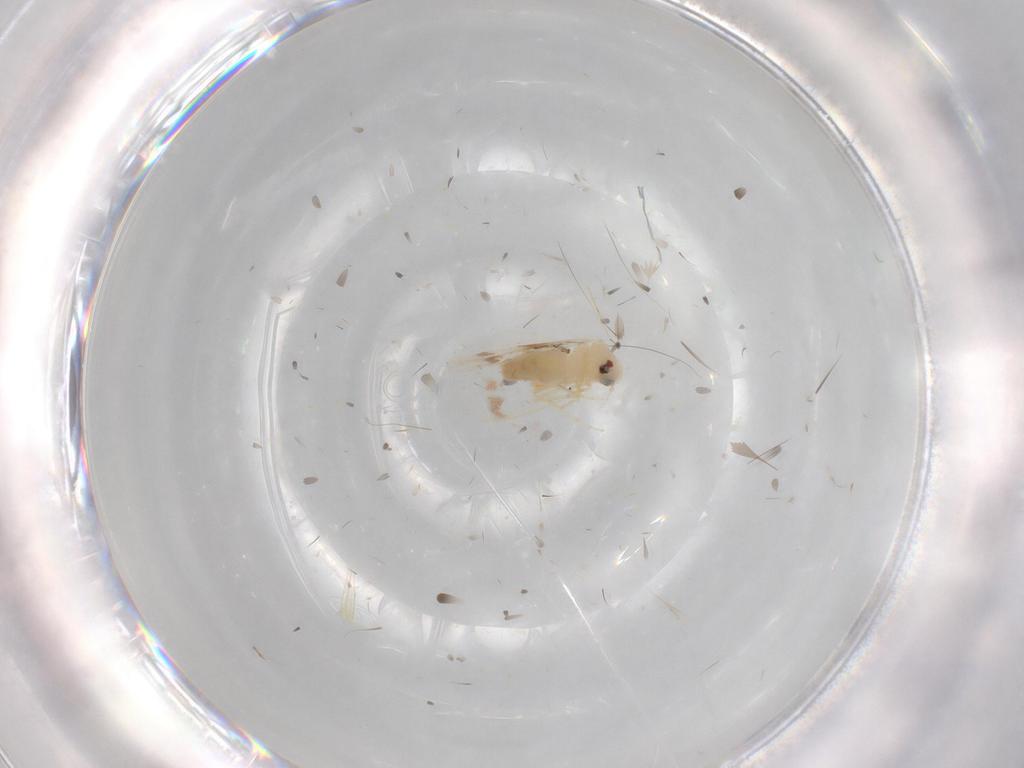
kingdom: Animalia
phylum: Arthropoda
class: Insecta
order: Hemiptera
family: Aleyrodidae
